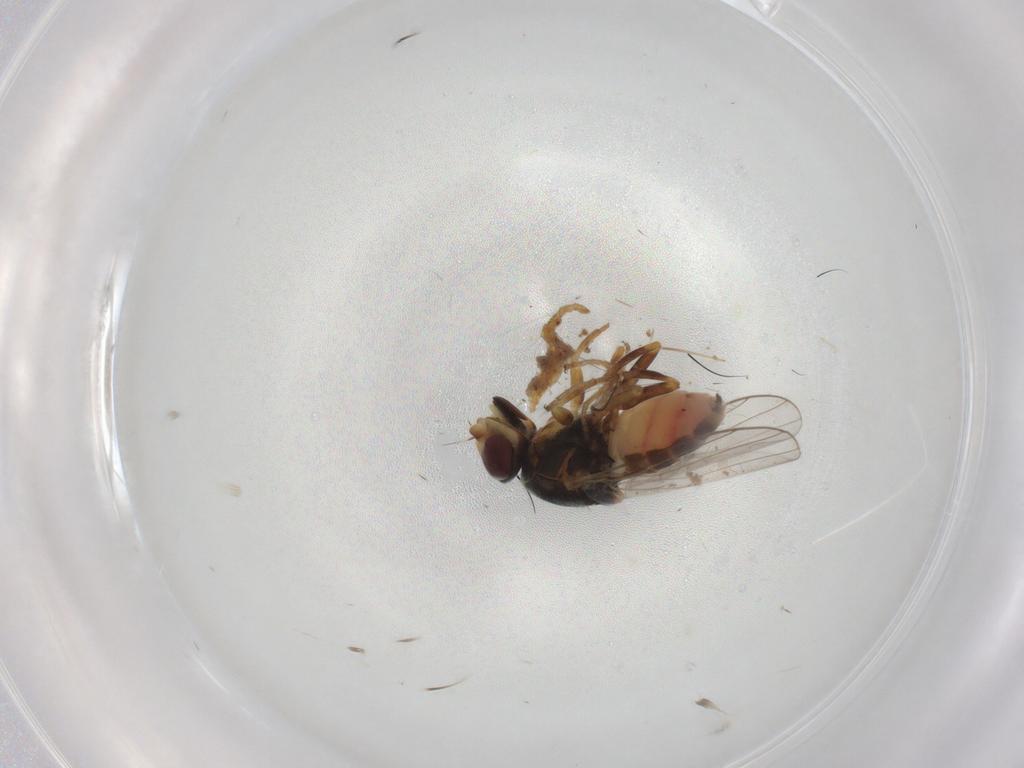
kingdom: Animalia
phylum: Arthropoda
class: Insecta
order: Diptera
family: Chloropidae
